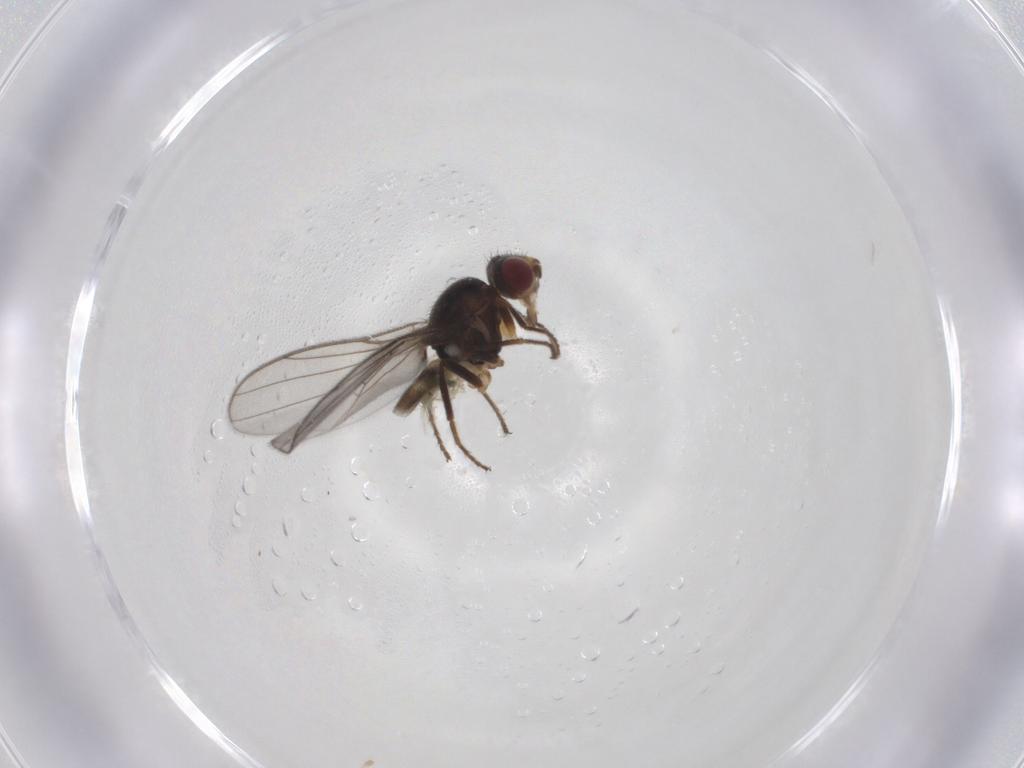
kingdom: Animalia
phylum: Arthropoda
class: Insecta
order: Diptera
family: Chloropidae
